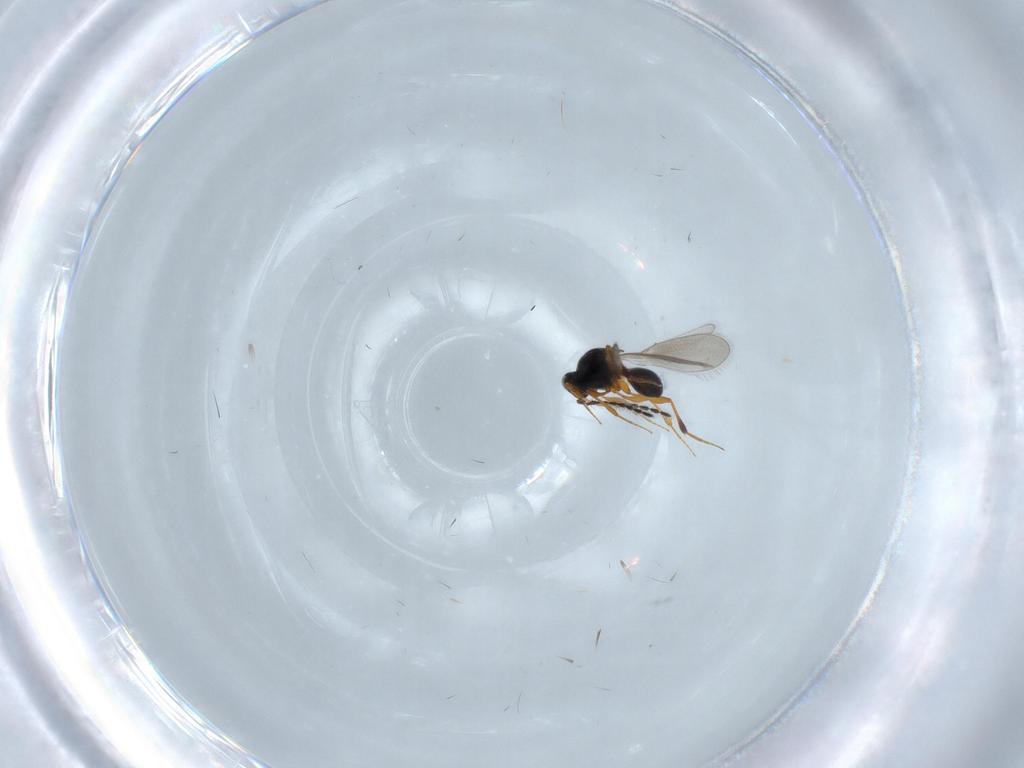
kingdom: Animalia
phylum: Arthropoda
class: Insecta
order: Hymenoptera
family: Platygastridae
